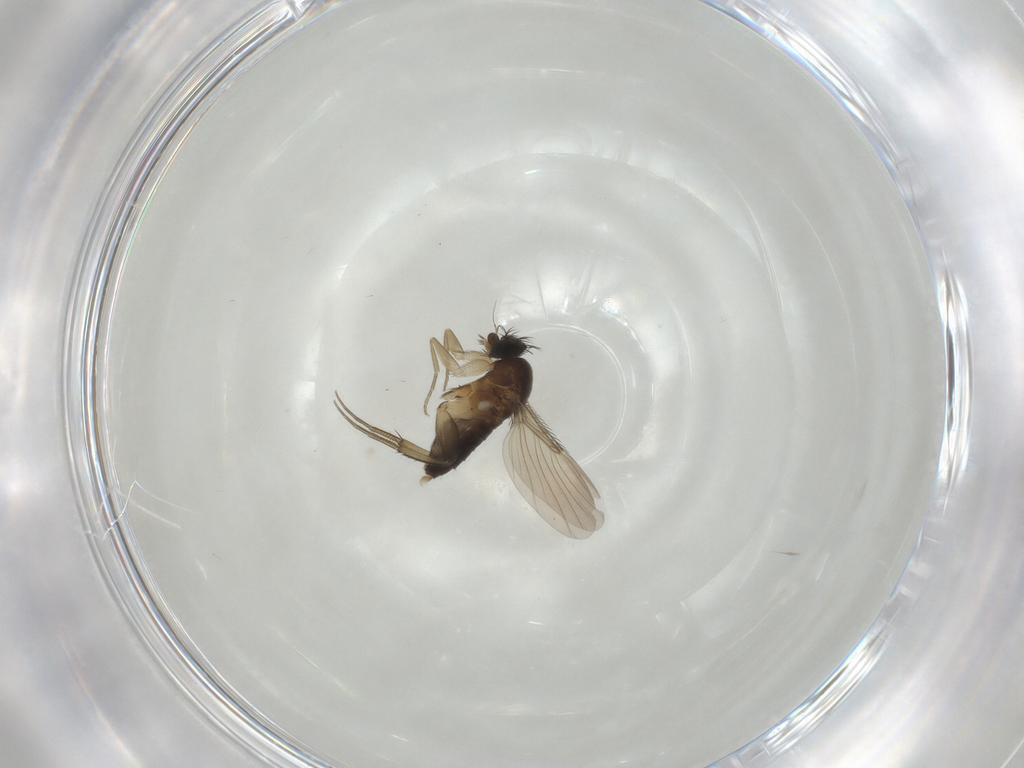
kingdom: Animalia
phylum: Arthropoda
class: Insecta
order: Diptera
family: Phoridae
